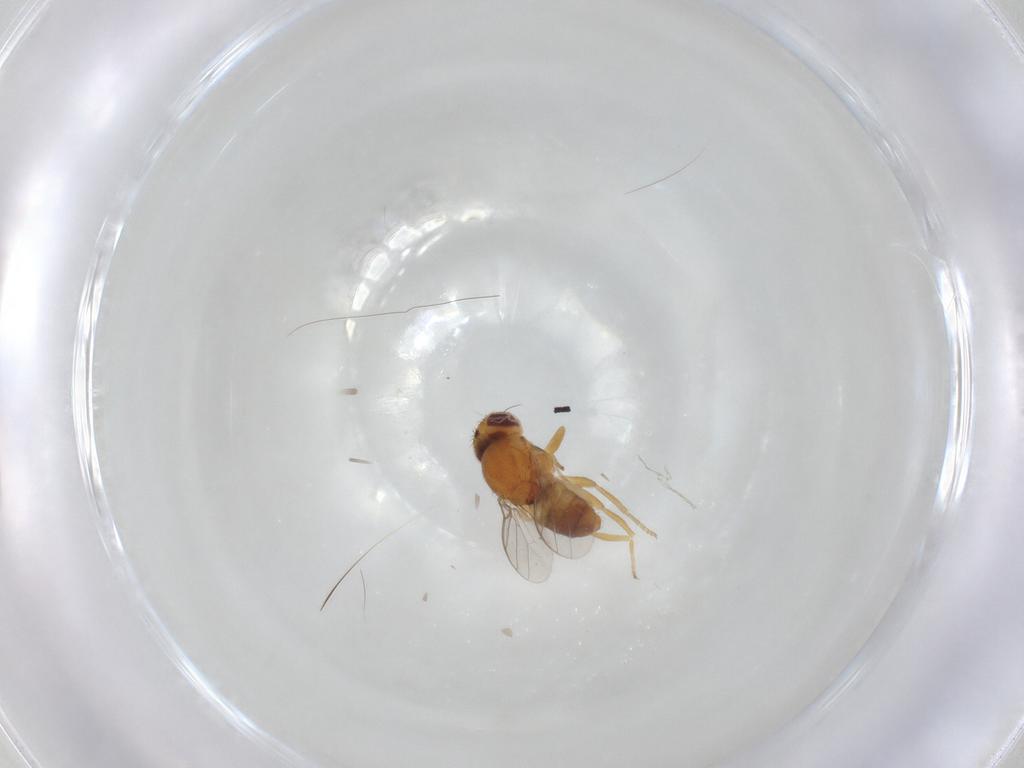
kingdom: Animalia
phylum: Arthropoda
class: Insecta
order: Diptera
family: Chloropidae
